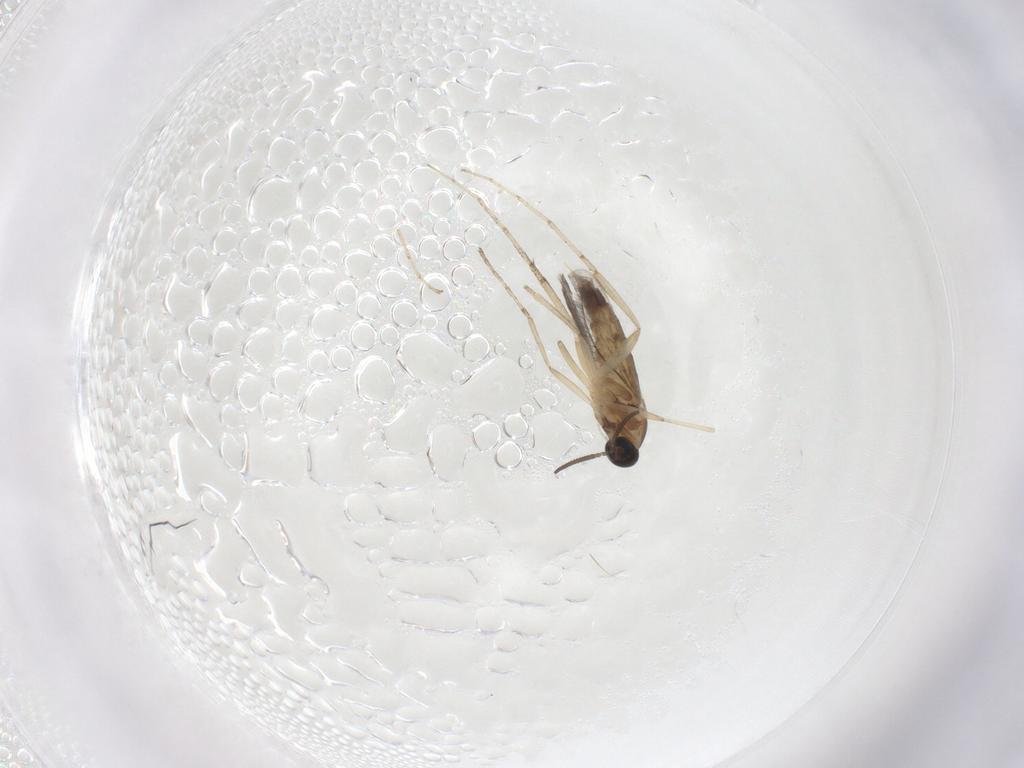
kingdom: Animalia
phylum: Arthropoda
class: Insecta
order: Diptera
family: Cecidomyiidae
